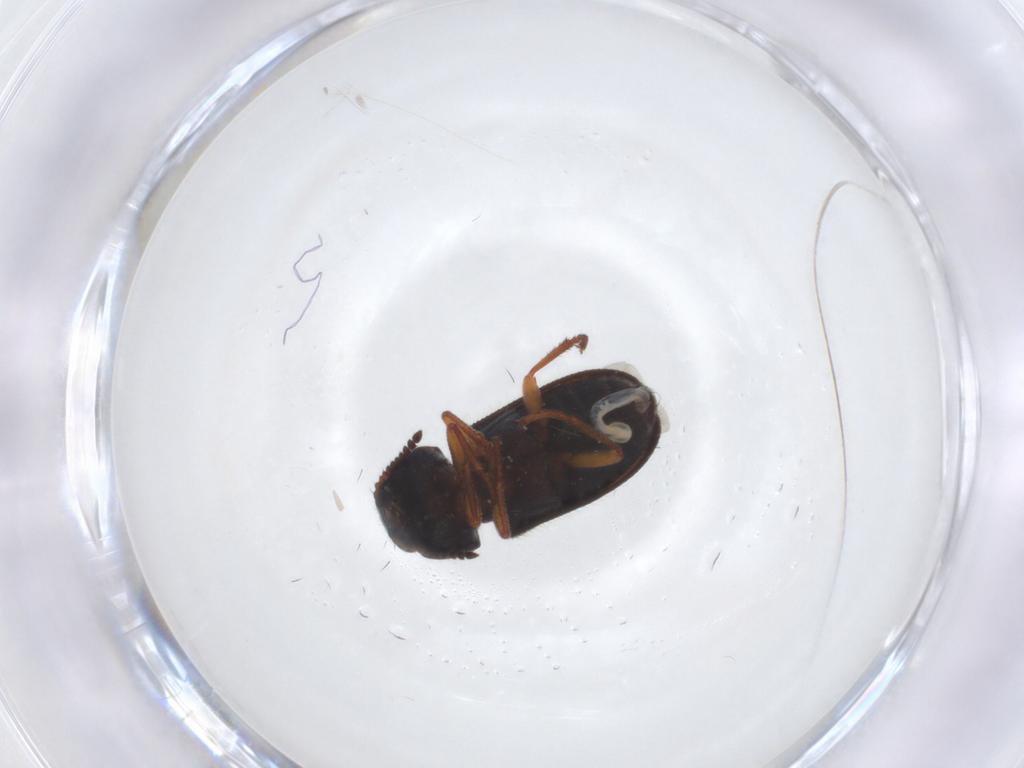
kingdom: Animalia
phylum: Arthropoda
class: Insecta
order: Coleoptera
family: Melyridae
